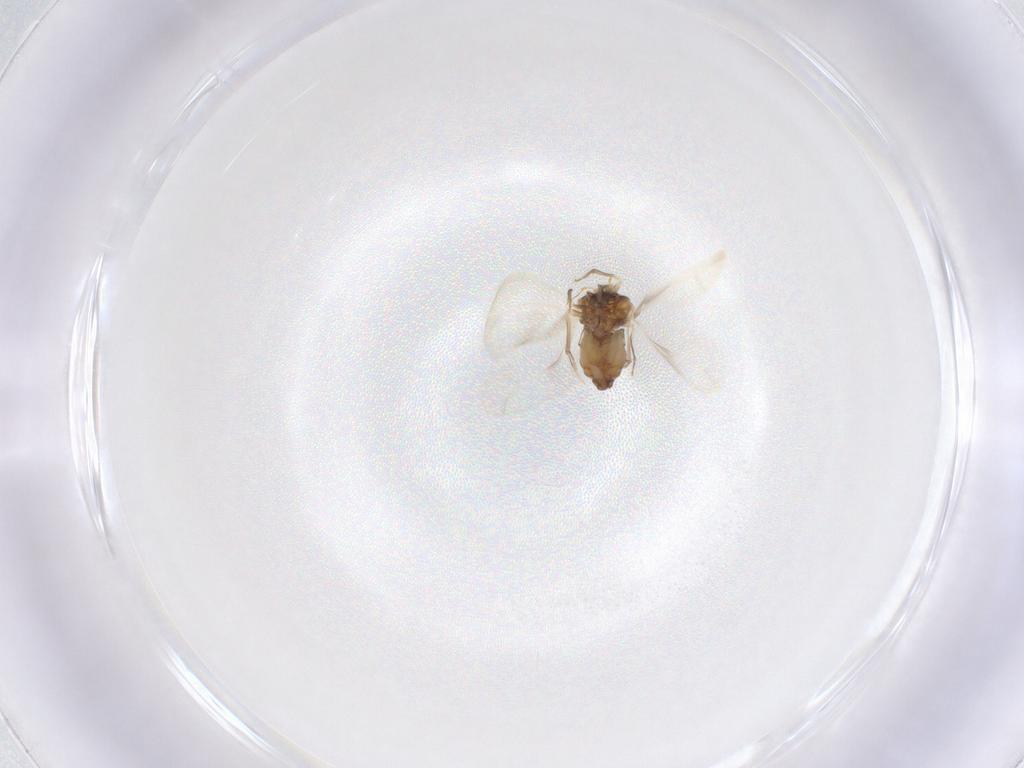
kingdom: Animalia
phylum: Arthropoda
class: Insecta
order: Hemiptera
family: Aleyrodidae
